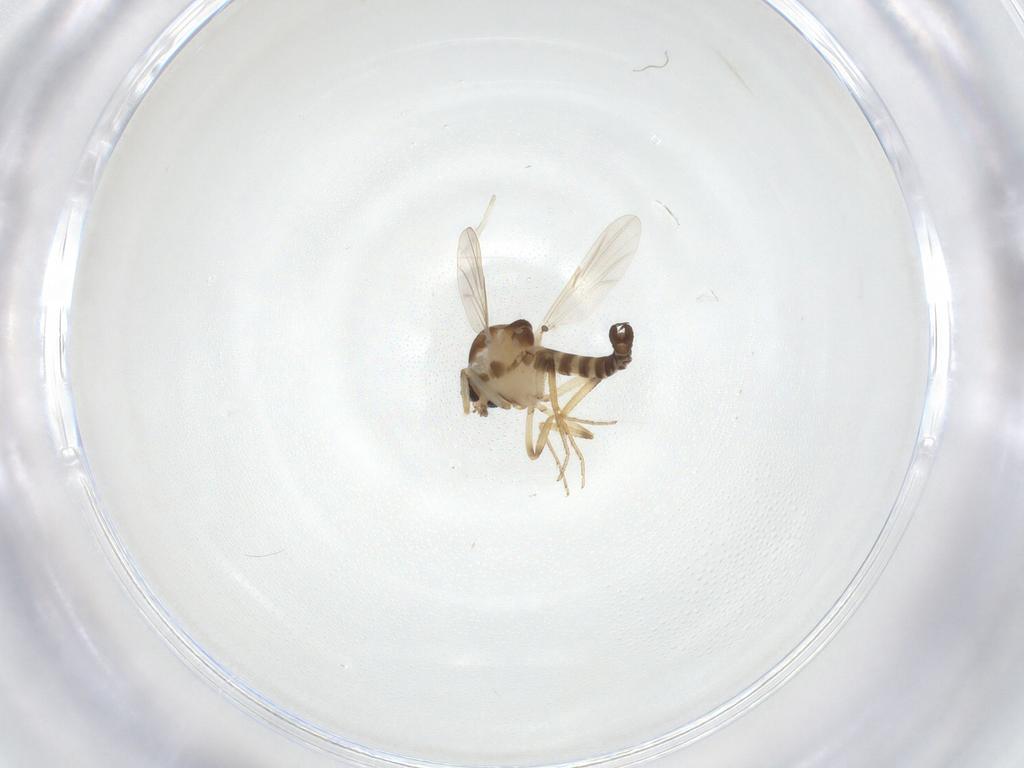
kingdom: Animalia
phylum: Arthropoda
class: Insecta
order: Diptera
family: Ceratopogonidae
